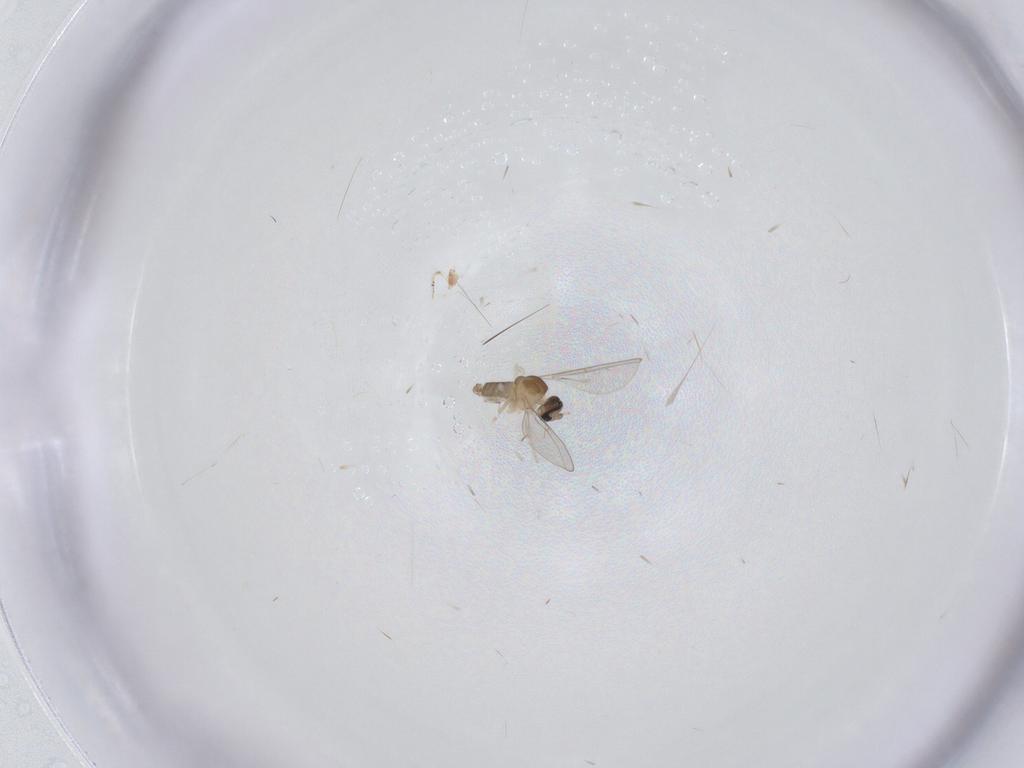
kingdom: Animalia
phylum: Arthropoda
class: Insecta
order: Diptera
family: Cecidomyiidae
